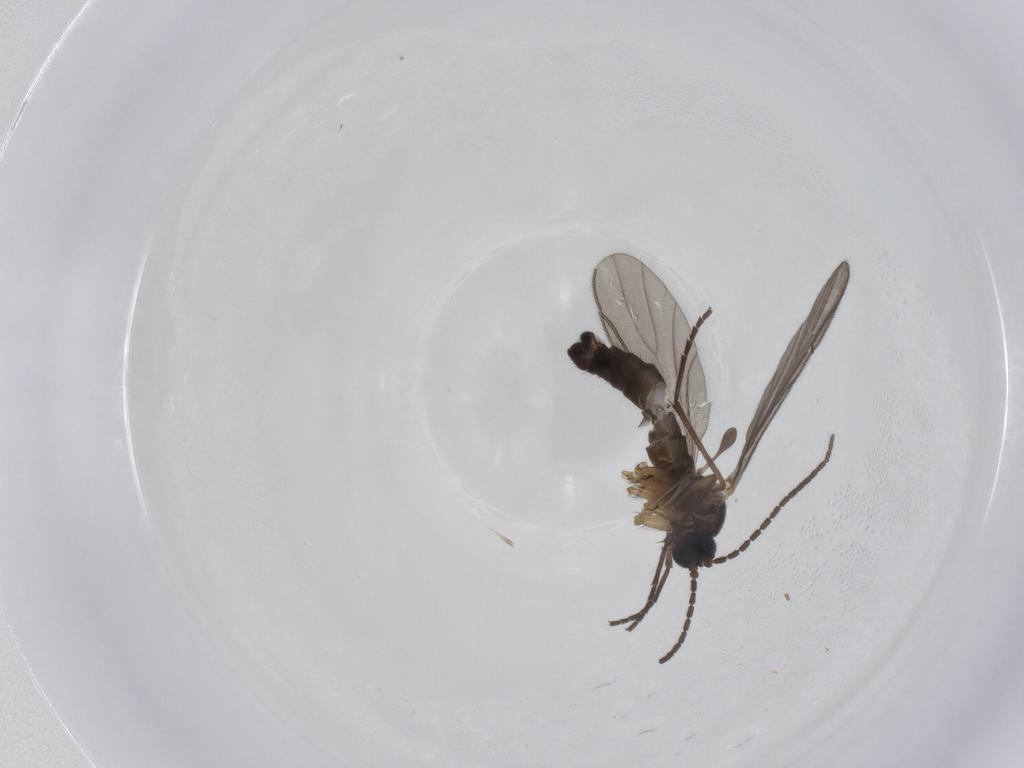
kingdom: Animalia
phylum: Arthropoda
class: Insecta
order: Diptera
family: Sciaridae
